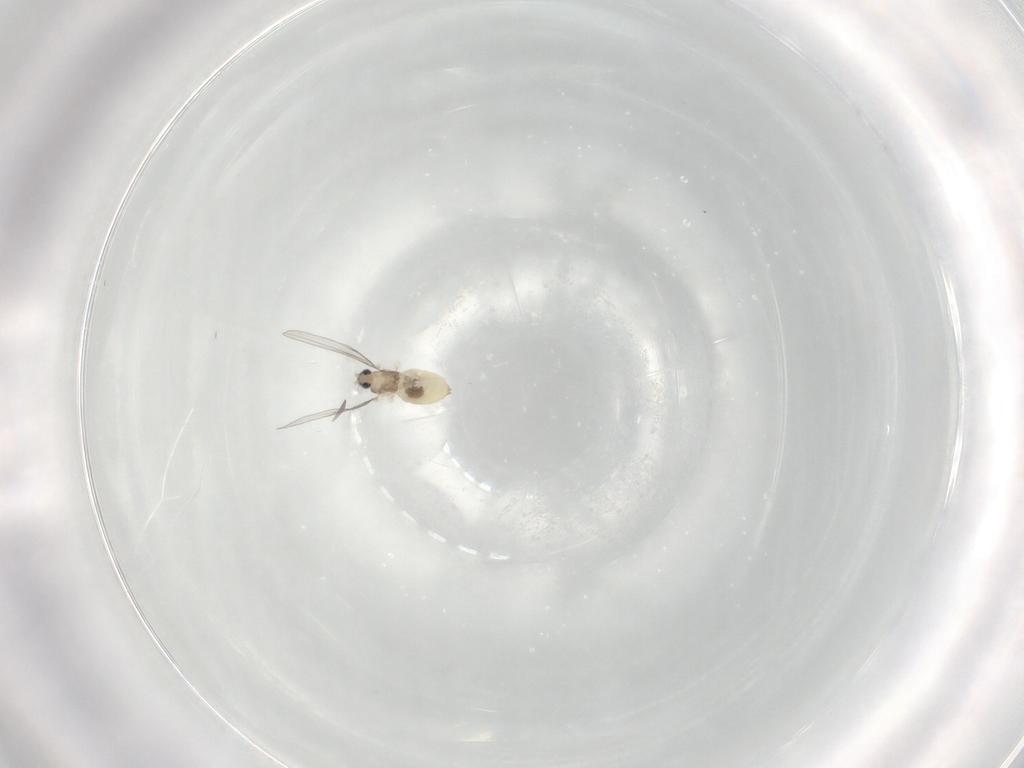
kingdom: Animalia
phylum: Arthropoda
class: Insecta
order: Diptera
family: Cecidomyiidae
